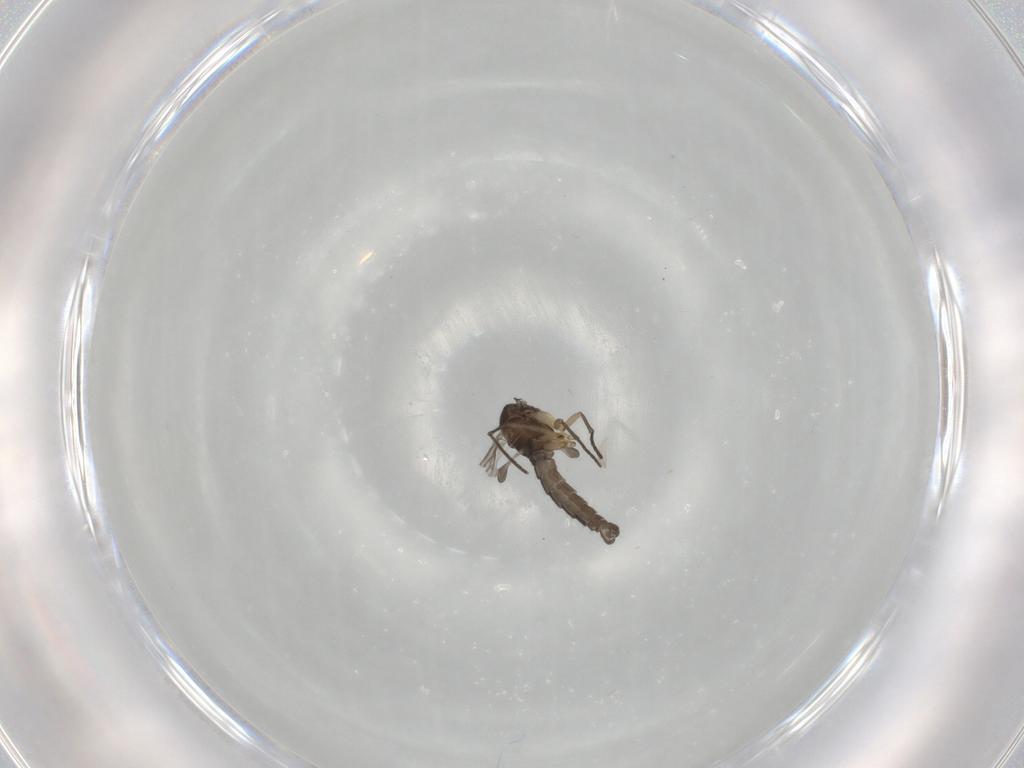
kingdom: Animalia
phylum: Arthropoda
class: Insecta
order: Diptera
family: Sciaridae
